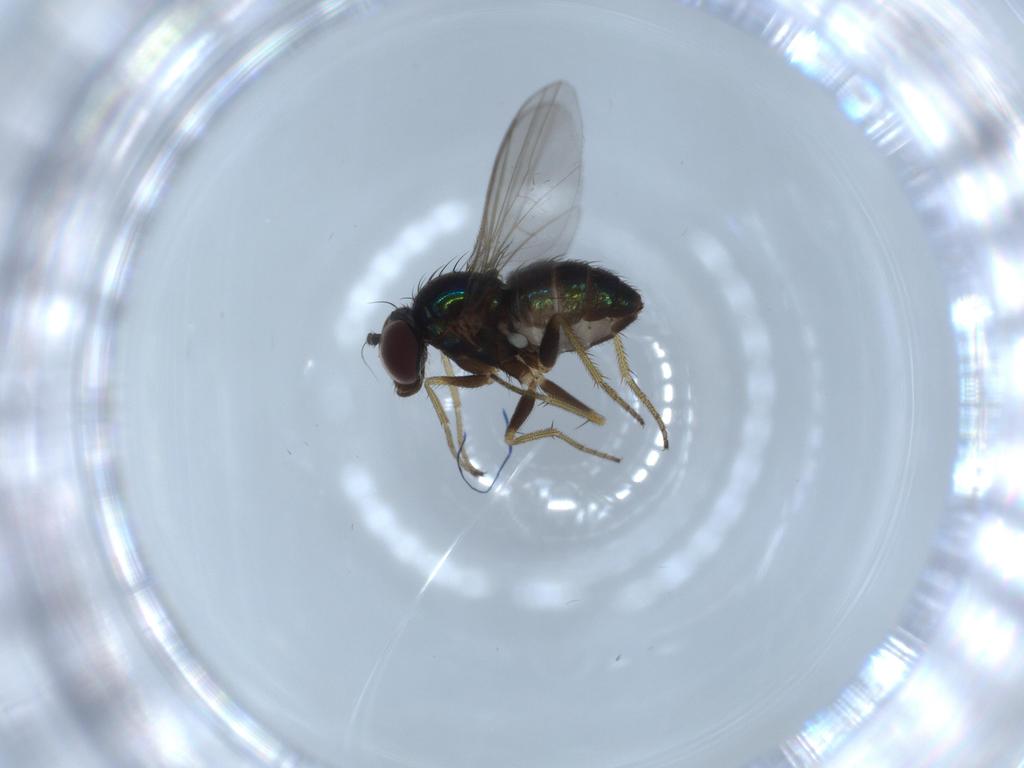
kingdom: Animalia
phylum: Arthropoda
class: Insecta
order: Diptera
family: Dolichopodidae
